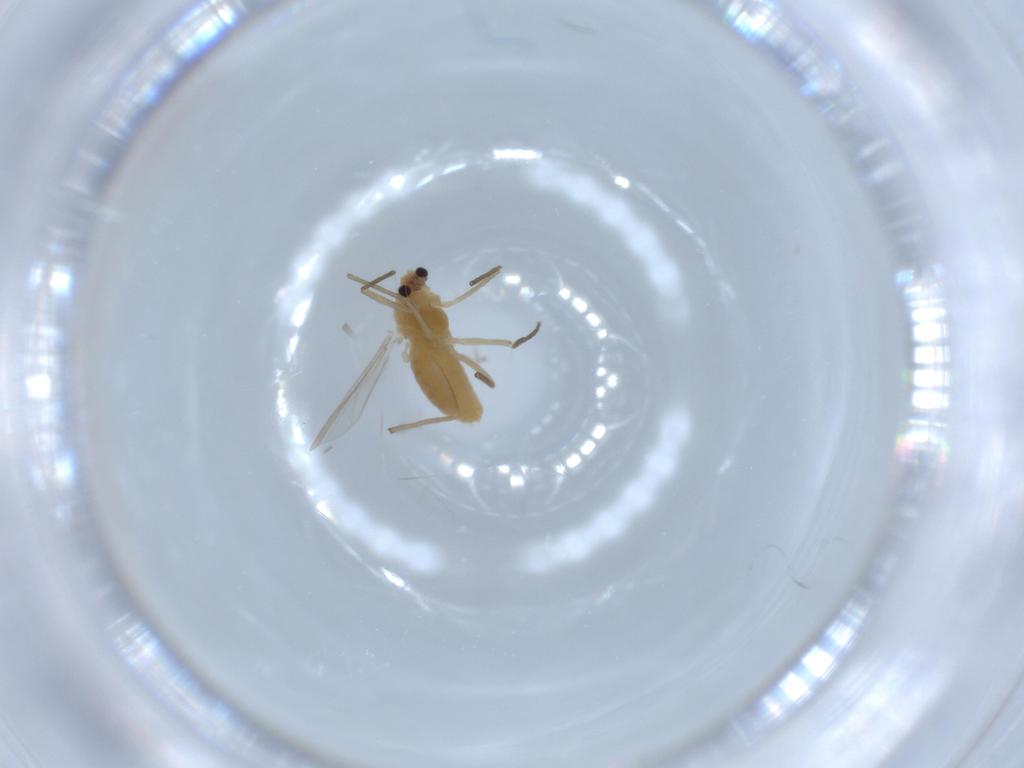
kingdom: Animalia
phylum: Arthropoda
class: Insecta
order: Diptera
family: Chironomidae
